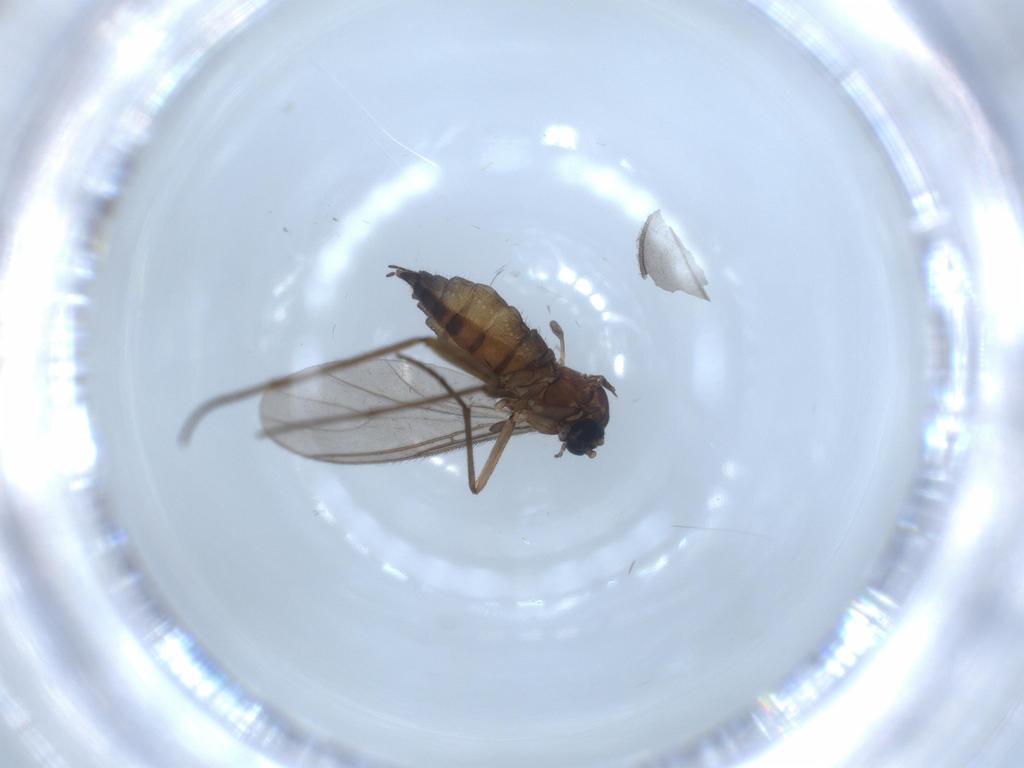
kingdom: Animalia
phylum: Arthropoda
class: Insecta
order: Diptera
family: Sciaridae
